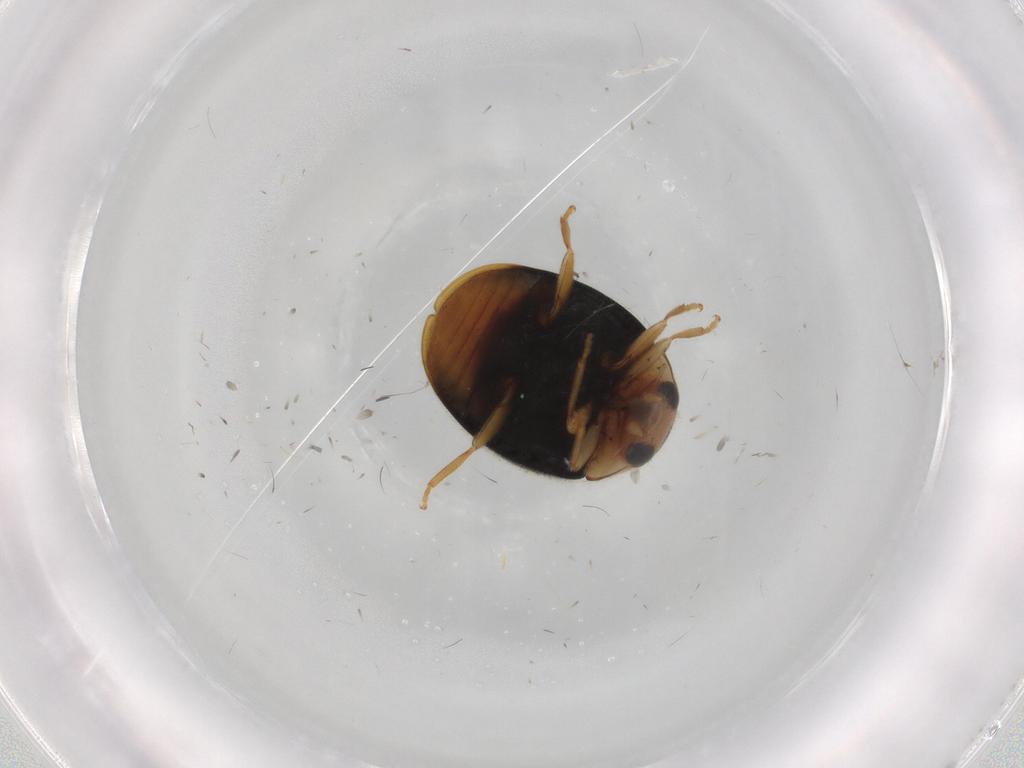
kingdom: Animalia
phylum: Arthropoda
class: Insecta
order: Coleoptera
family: Coccinellidae
